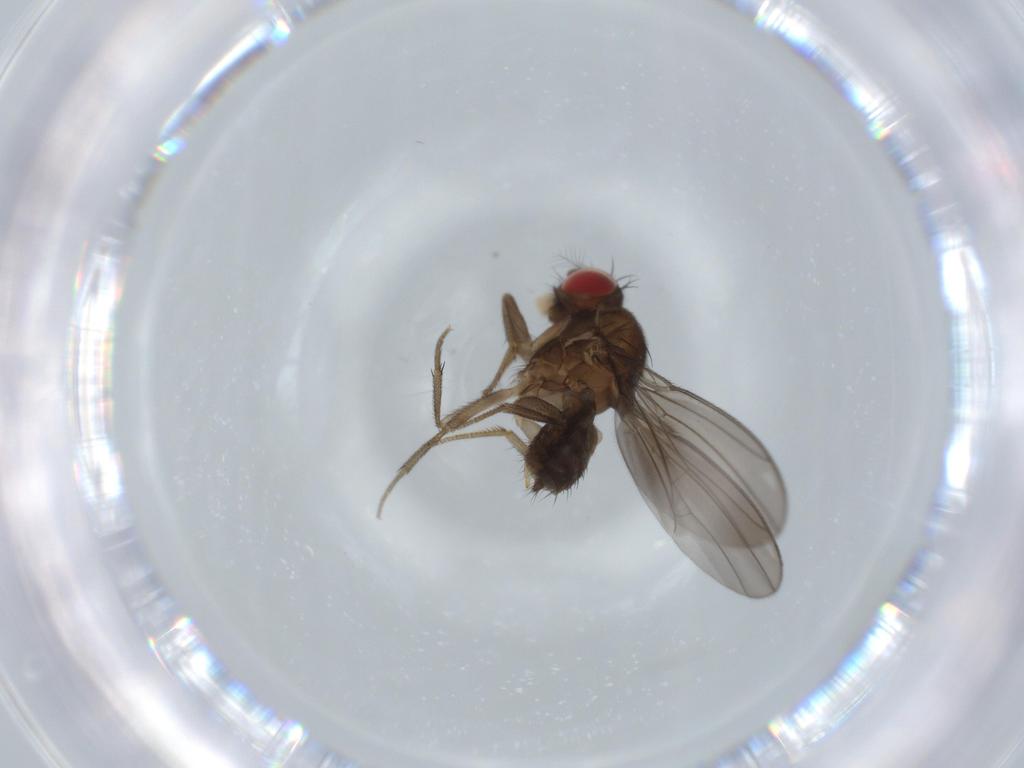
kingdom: Animalia
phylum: Arthropoda
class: Insecta
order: Diptera
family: Drosophilidae
